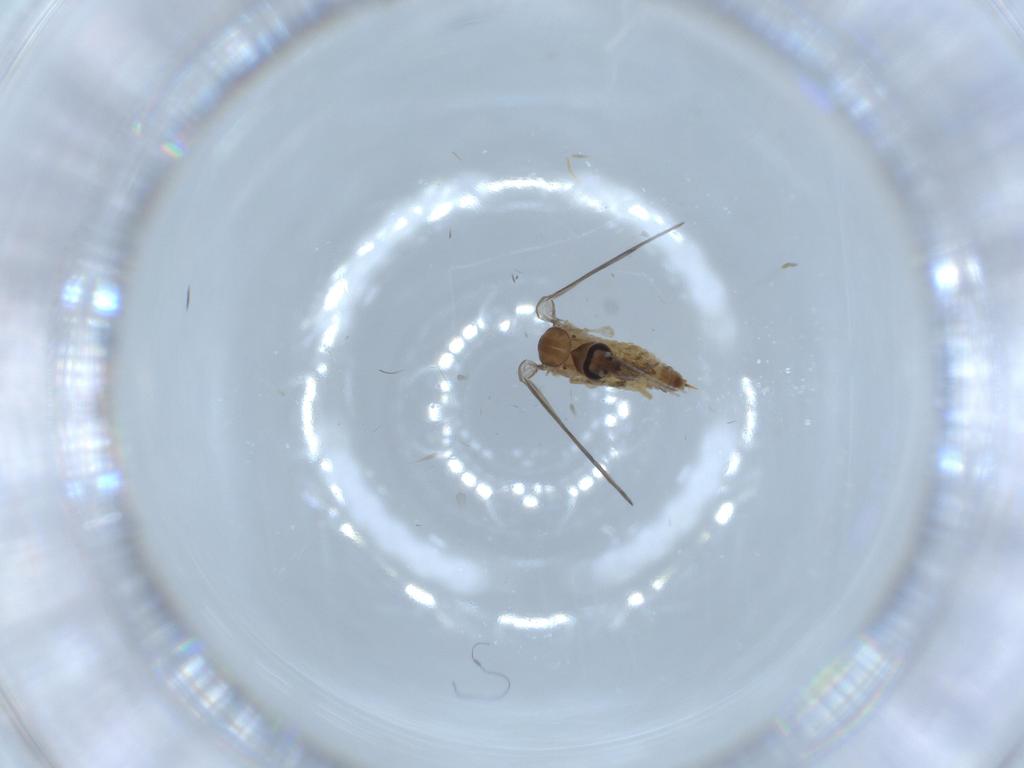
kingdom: Animalia
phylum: Arthropoda
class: Insecta
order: Diptera
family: Psychodidae
